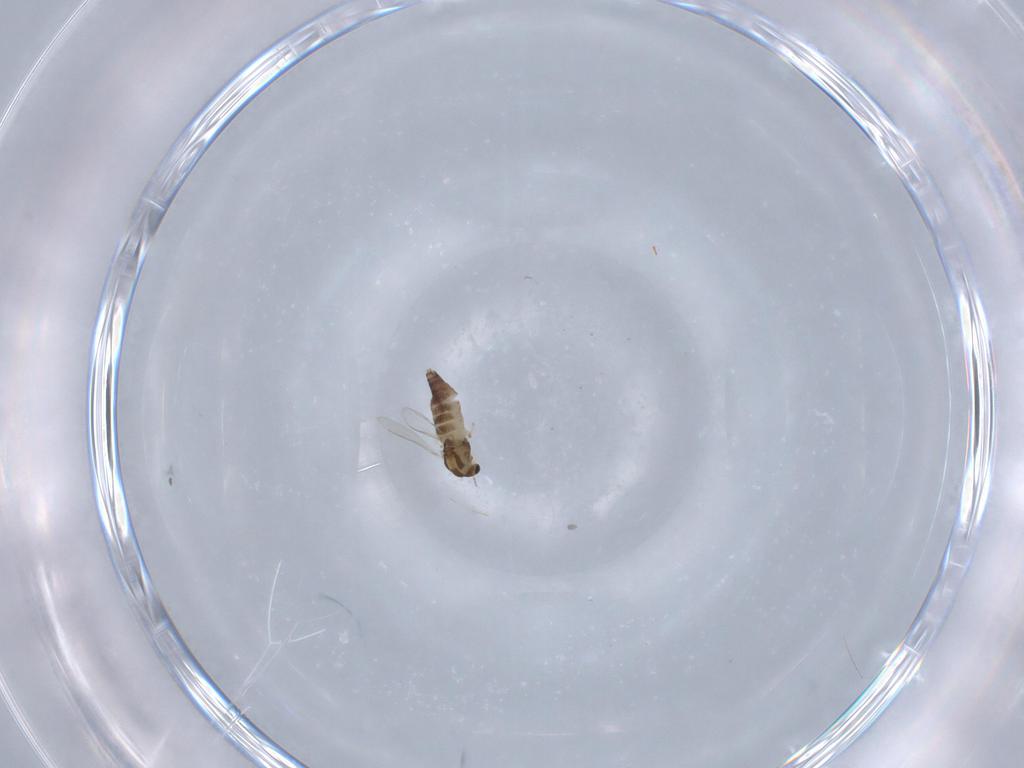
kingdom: Animalia
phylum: Arthropoda
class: Insecta
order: Diptera
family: Chironomidae
